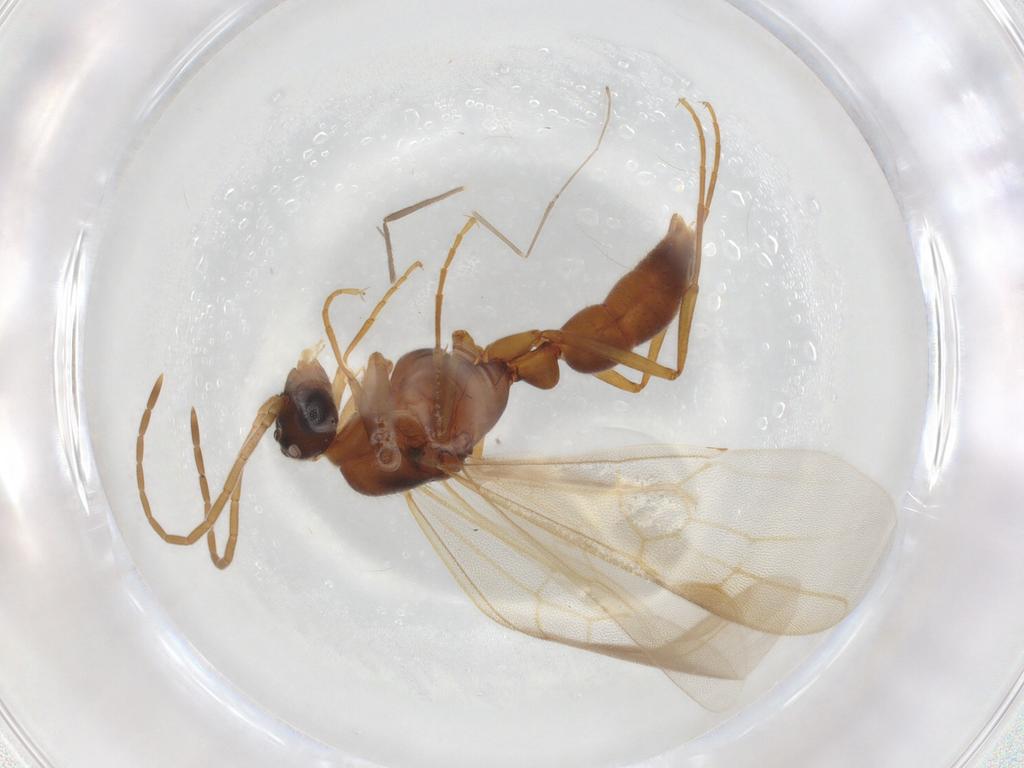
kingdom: Animalia
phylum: Arthropoda
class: Insecta
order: Hymenoptera
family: Formicidae
